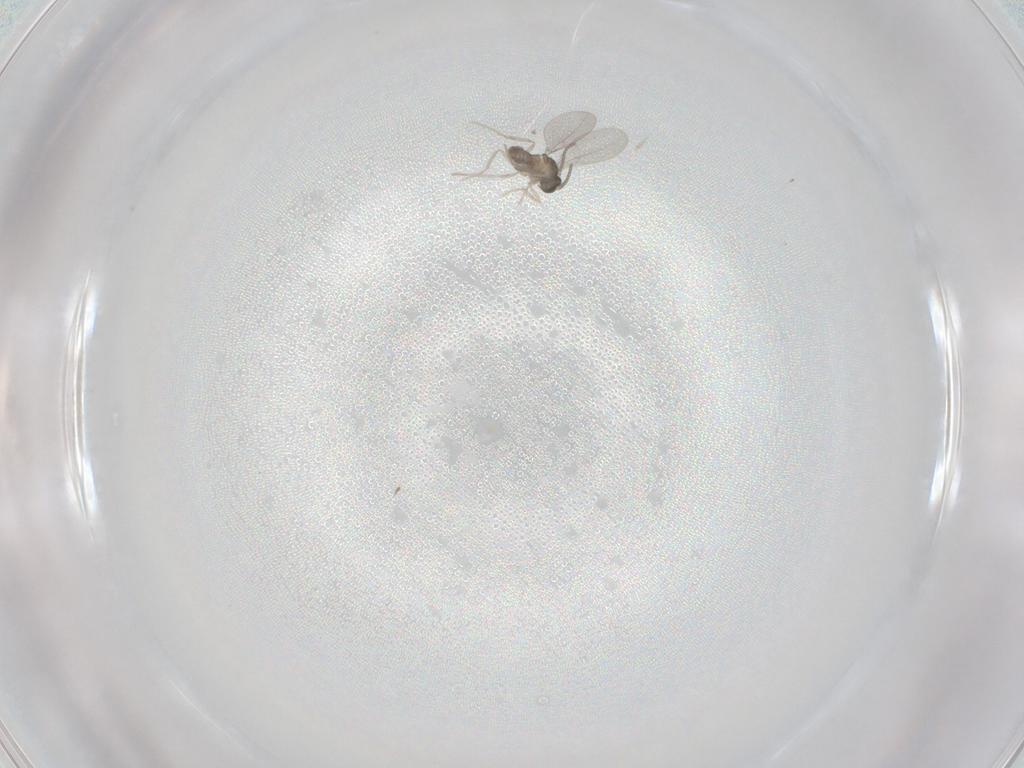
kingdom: Animalia
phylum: Arthropoda
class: Insecta
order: Diptera
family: Cecidomyiidae
